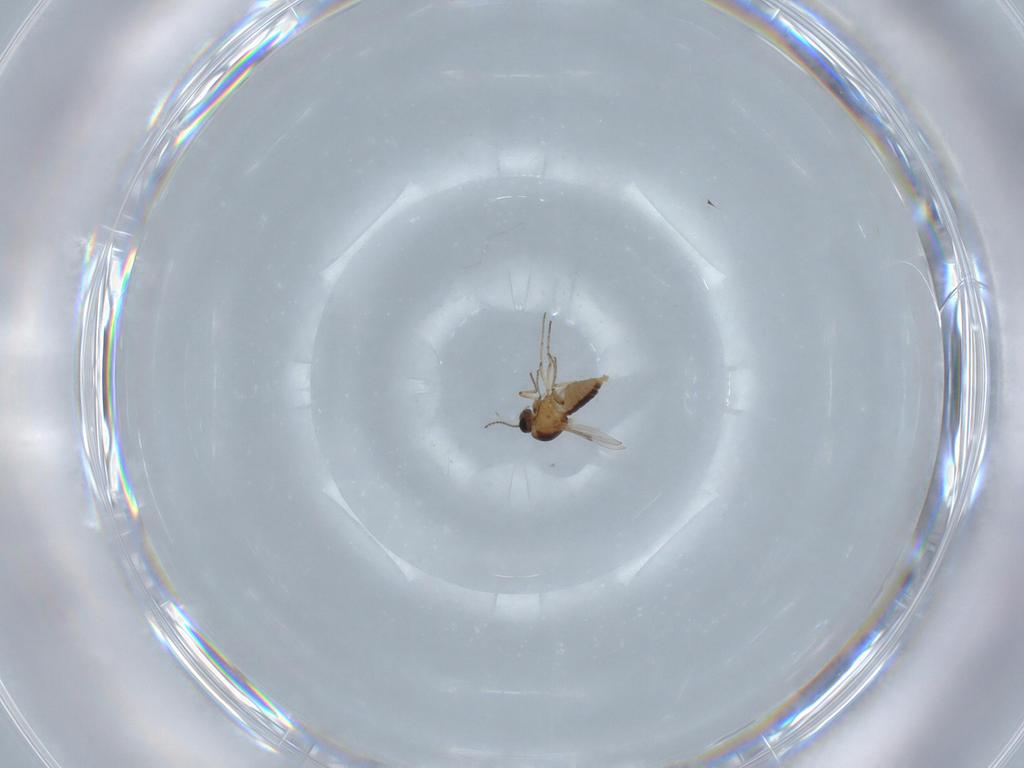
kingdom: Animalia
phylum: Arthropoda
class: Insecta
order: Diptera
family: Ceratopogonidae
